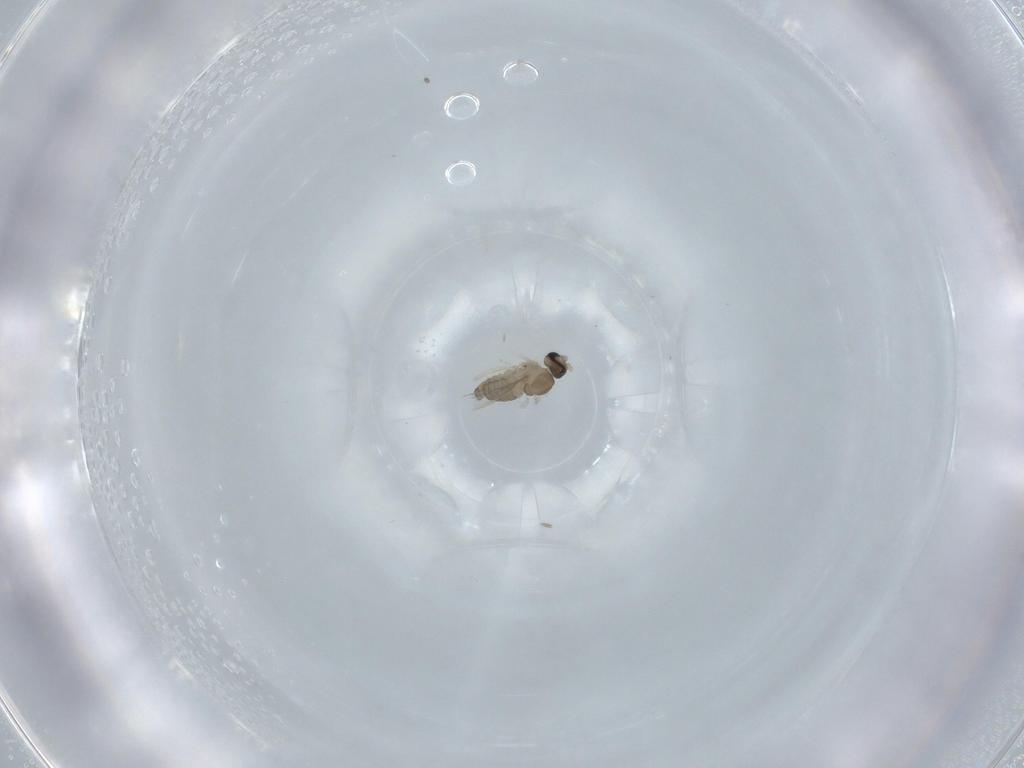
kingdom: Animalia
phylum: Arthropoda
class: Insecta
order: Diptera
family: Cecidomyiidae
